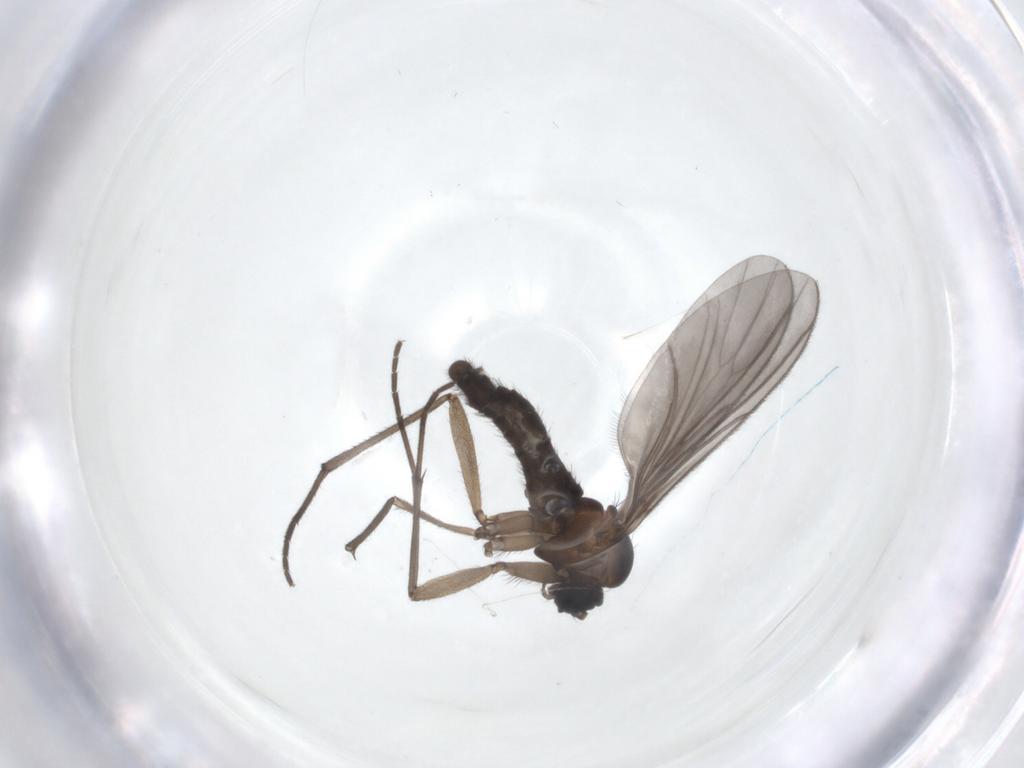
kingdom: Animalia
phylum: Arthropoda
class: Insecta
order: Diptera
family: Sciaridae
